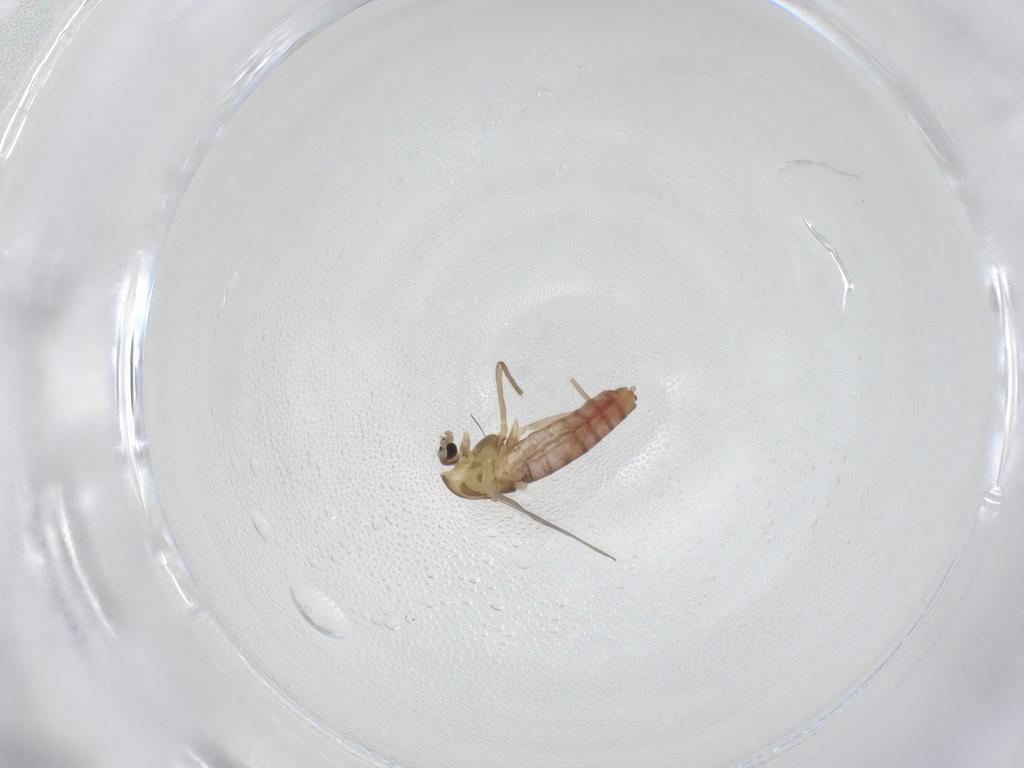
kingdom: Animalia
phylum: Arthropoda
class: Insecta
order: Diptera
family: Chironomidae
